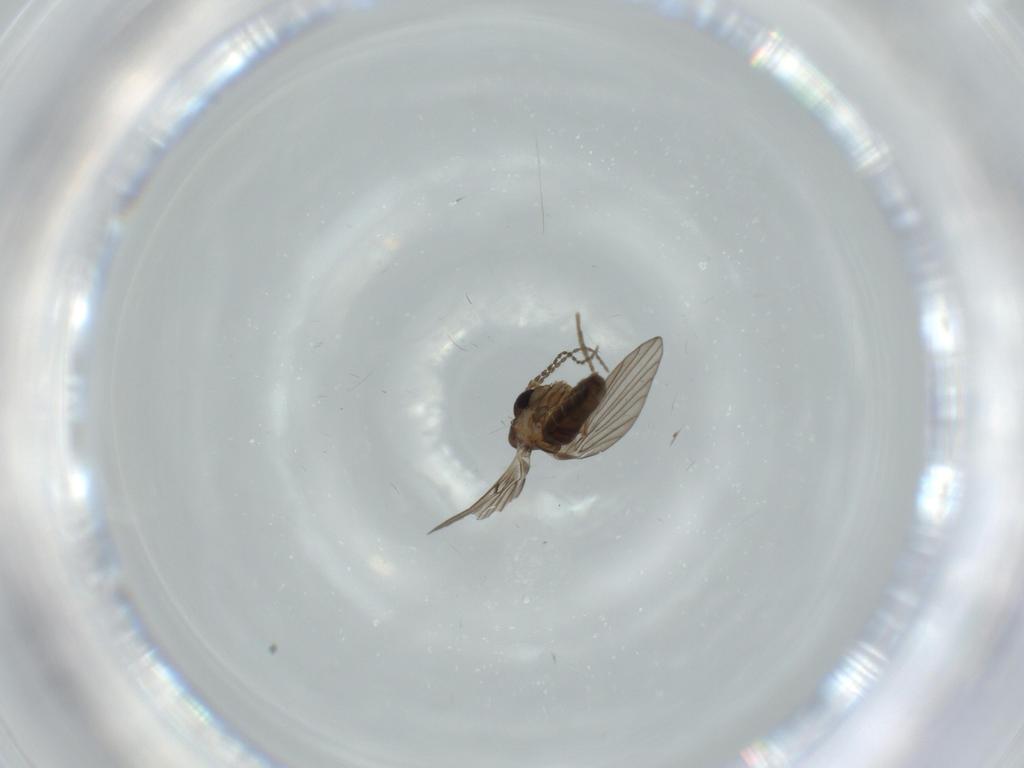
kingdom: Animalia
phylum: Arthropoda
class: Insecta
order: Diptera
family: Psychodidae
